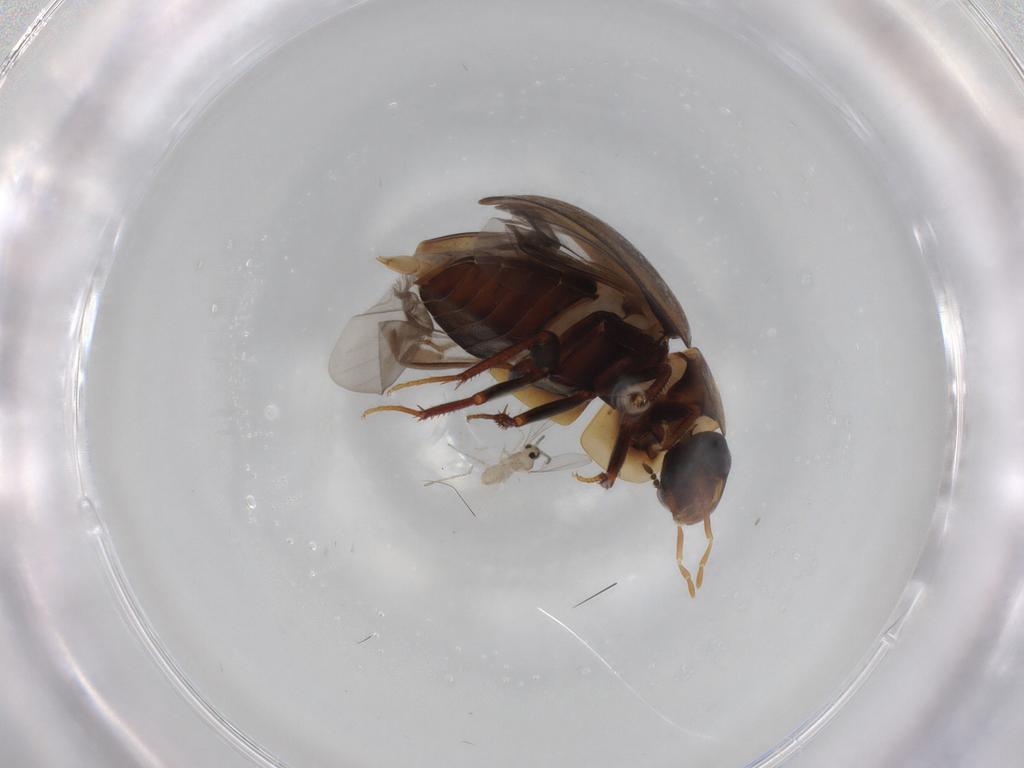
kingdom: Animalia
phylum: Arthropoda
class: Insecta
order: Coleoptera
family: Hydrophilidae
